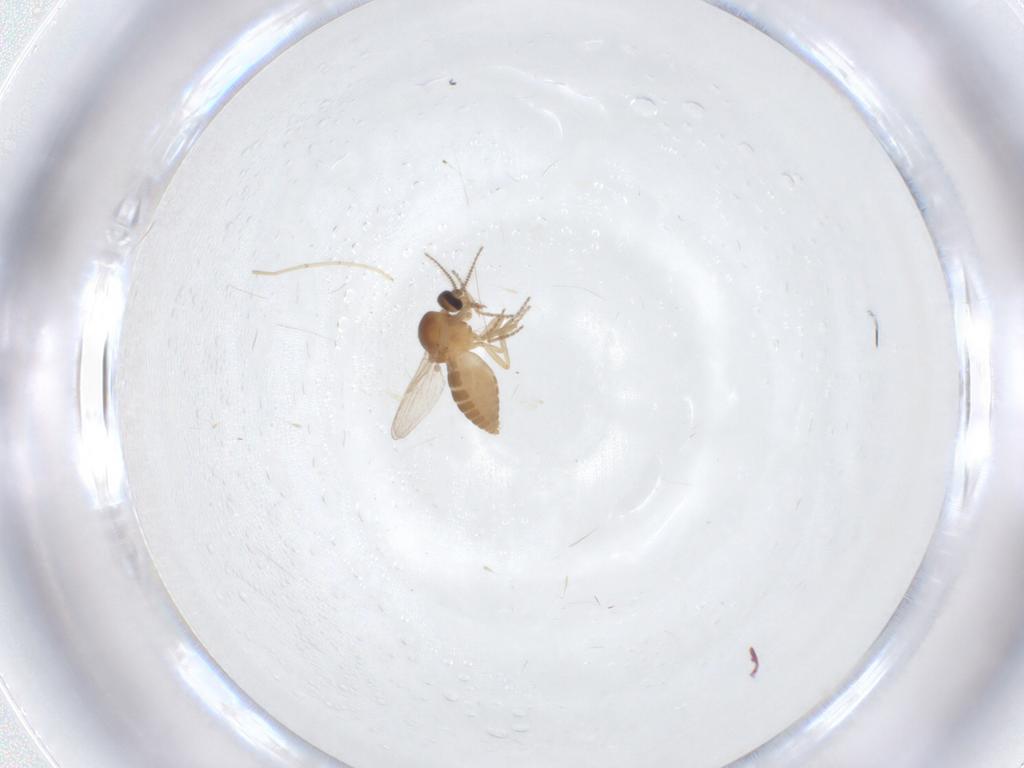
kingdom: Animalia
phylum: Arthropoda
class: Insecta
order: Diptera
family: Ceratopogonidae
